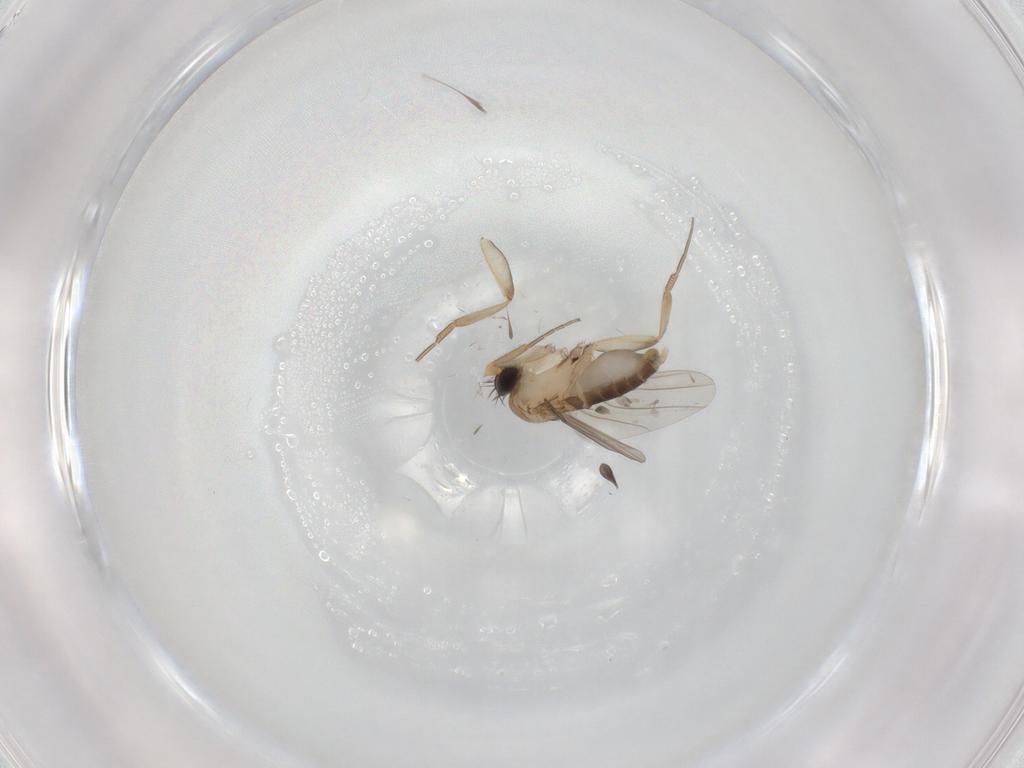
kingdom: Animalia
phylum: Arthropoda
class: Insecta
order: Diptera
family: Phoridae
